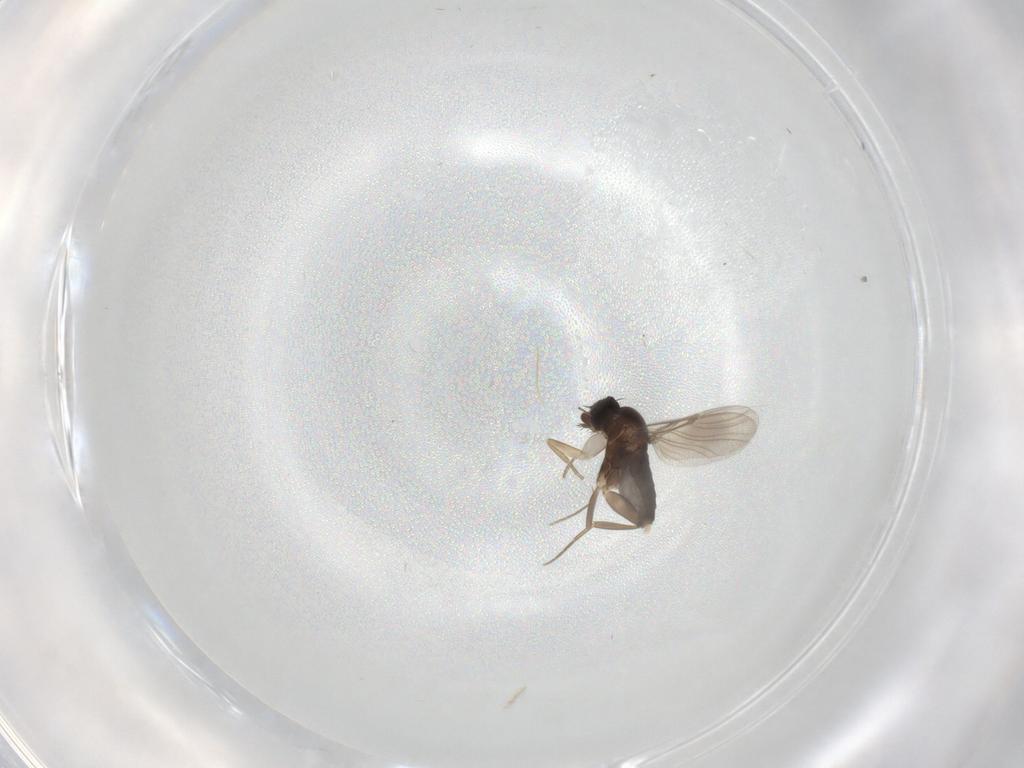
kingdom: Animalia
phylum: Arthropoda
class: Insecta
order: Diptera
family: Phoridae
